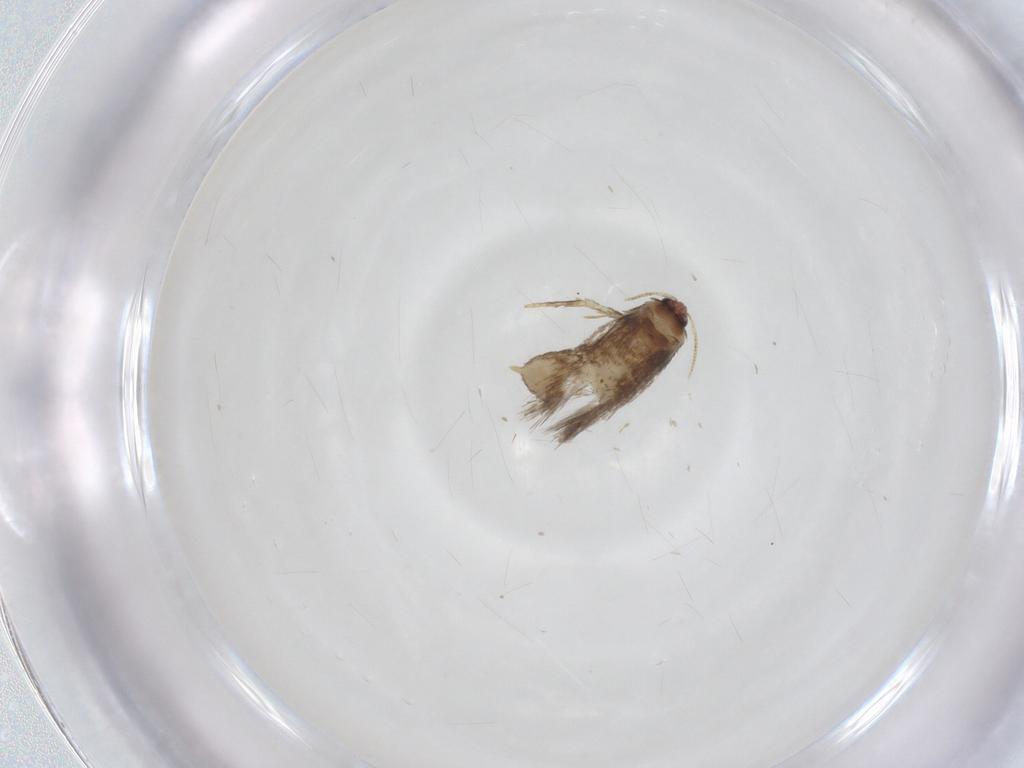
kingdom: Animalia
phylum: Arthropoda
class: Insecta
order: Lepidoptera
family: Nepticulidae
